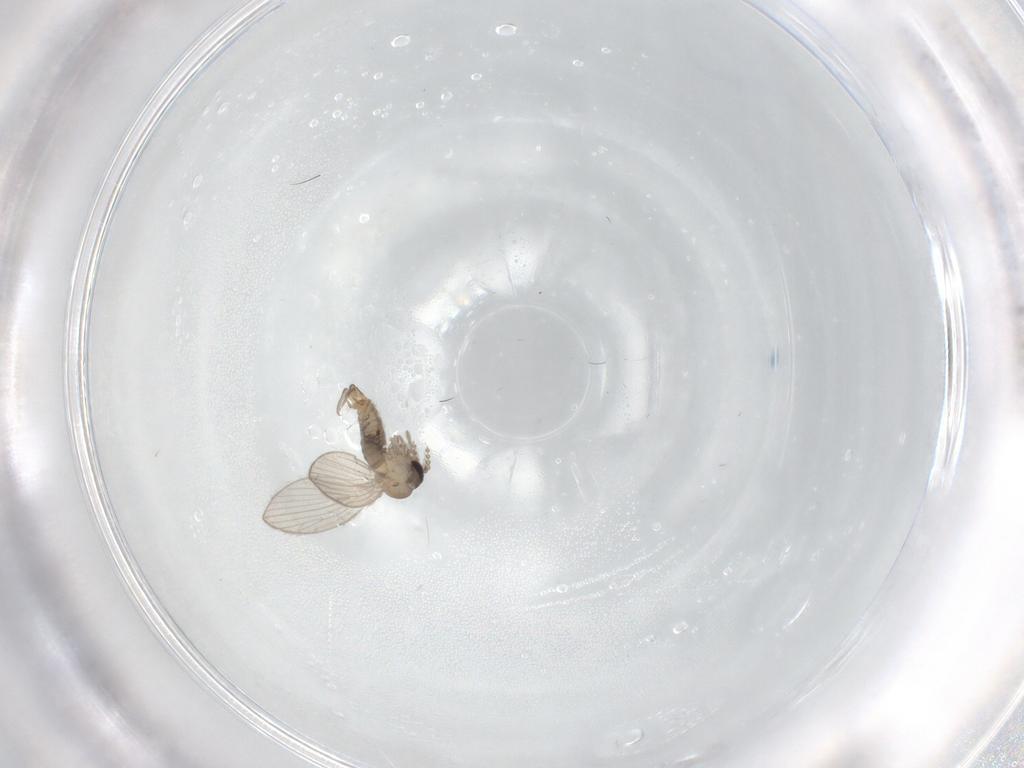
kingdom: Animalia
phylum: Arthropoda
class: Insecta
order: Diptera
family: Psychodidae
